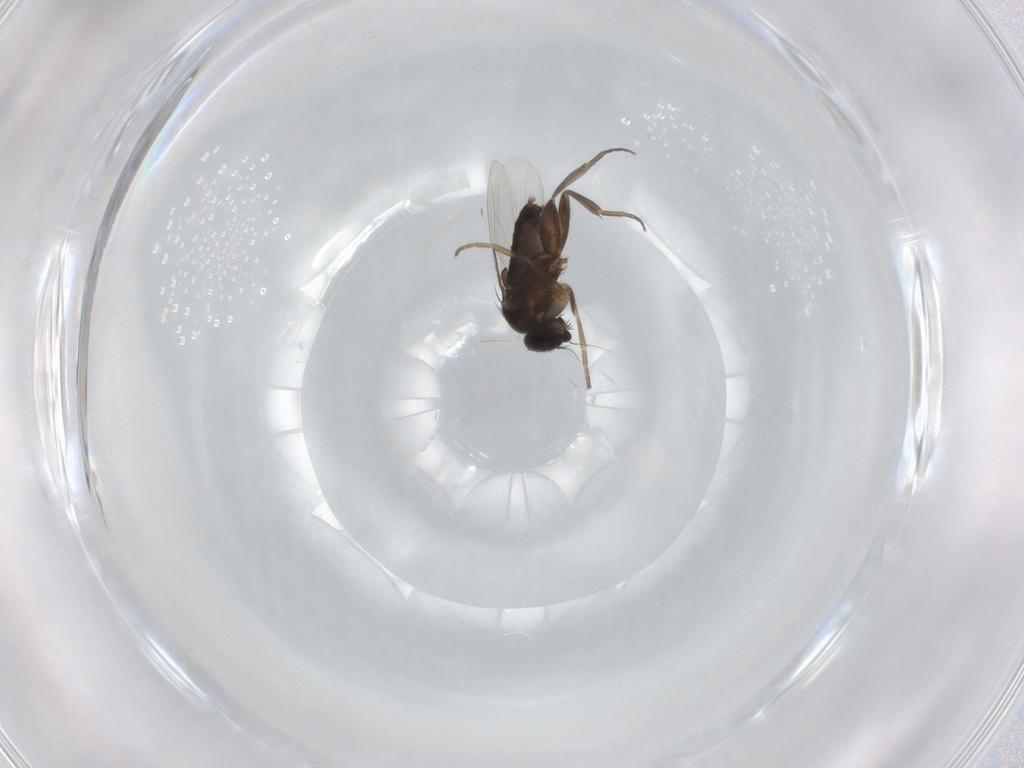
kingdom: Animalia
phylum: Arthropoda
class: Insecta
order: Diptera
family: Phoridae
